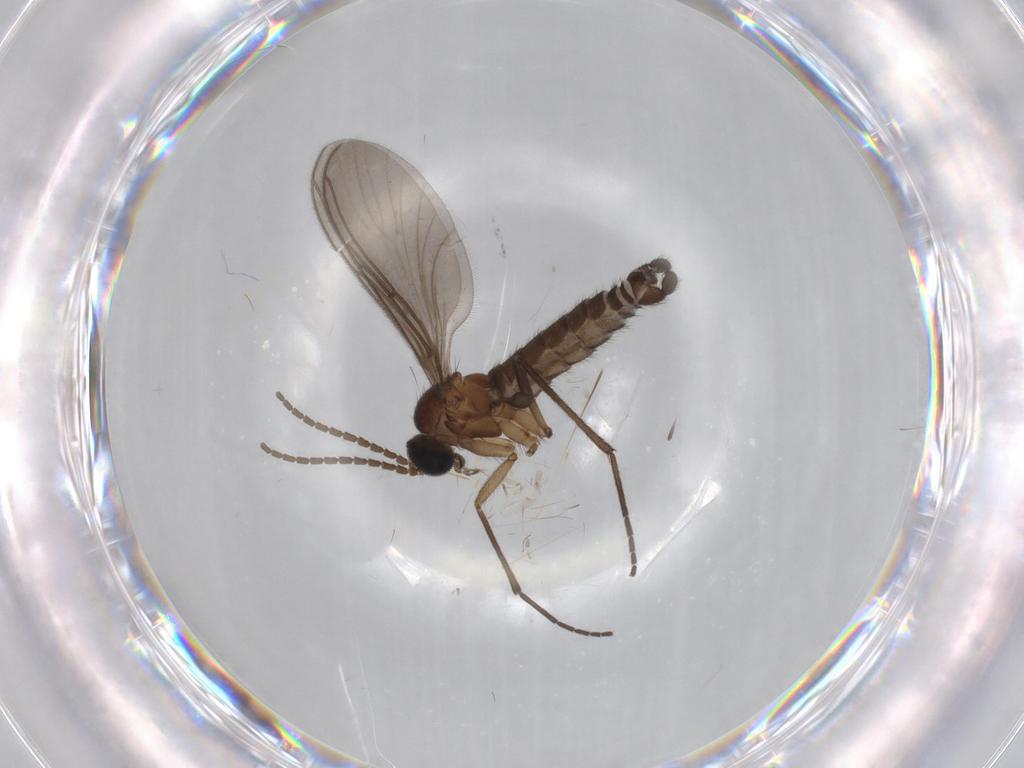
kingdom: Animalia
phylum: Arthropoda
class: Insecta
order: Diptera
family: Sciaridae
